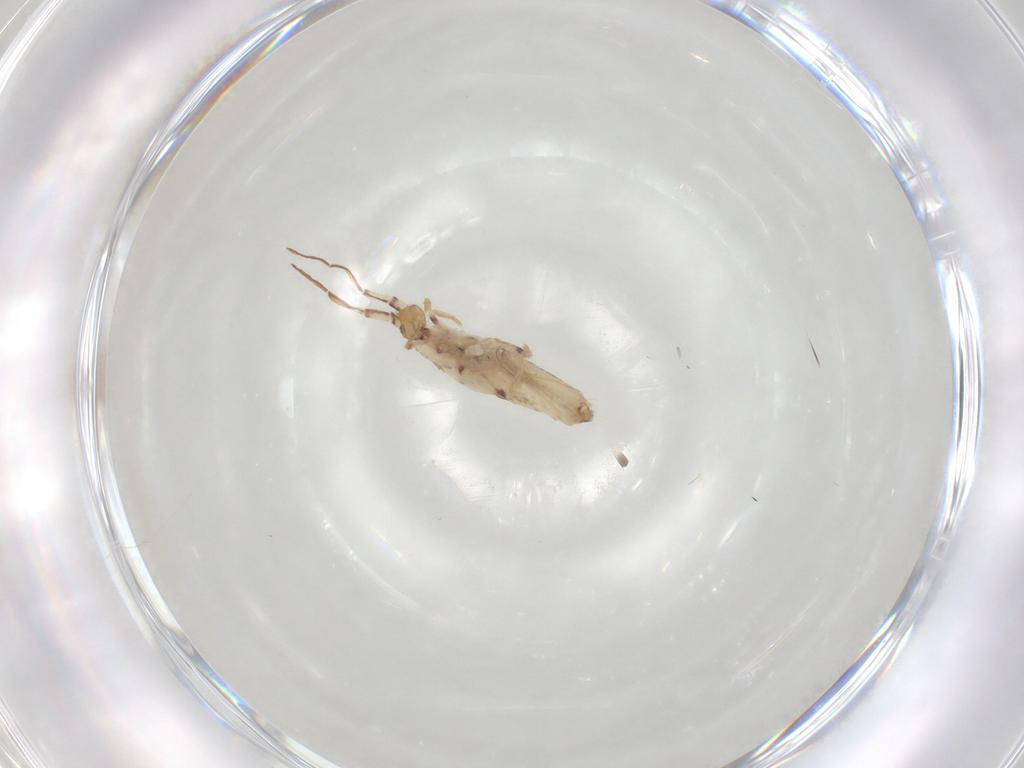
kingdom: Animalia
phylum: Arthropoda
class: Collembola
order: Entomobryomorpha
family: Entomobryidae
